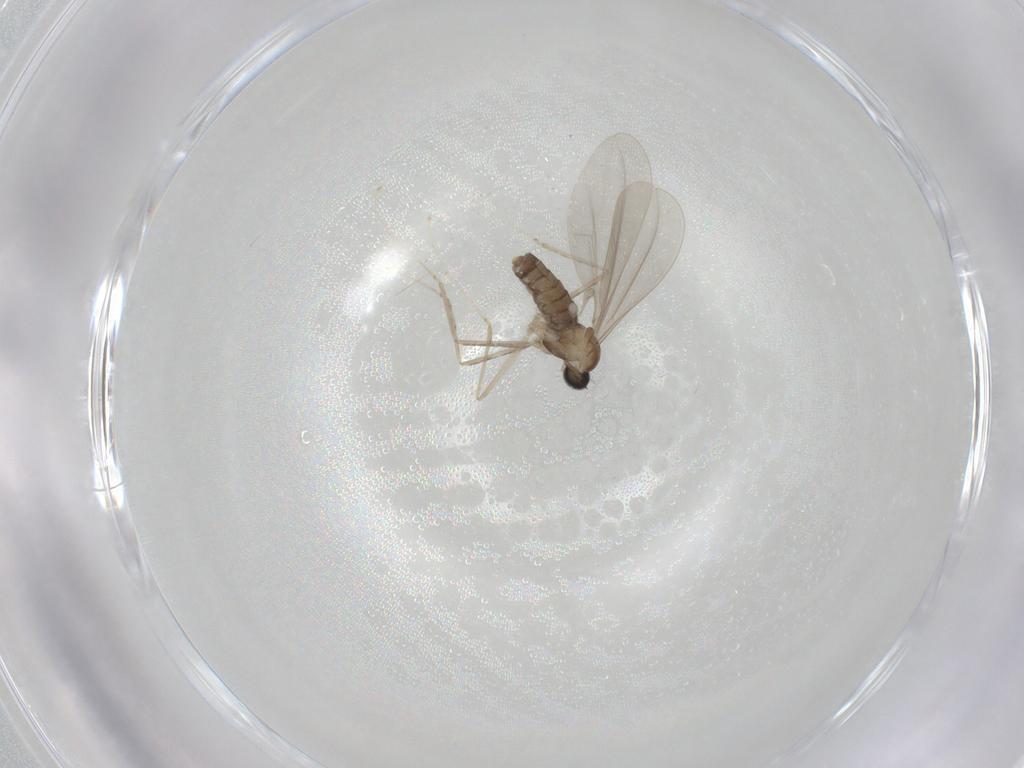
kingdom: Animalia
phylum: Arthropoda
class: Insecta
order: Diptera
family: Cecidomyiidae
